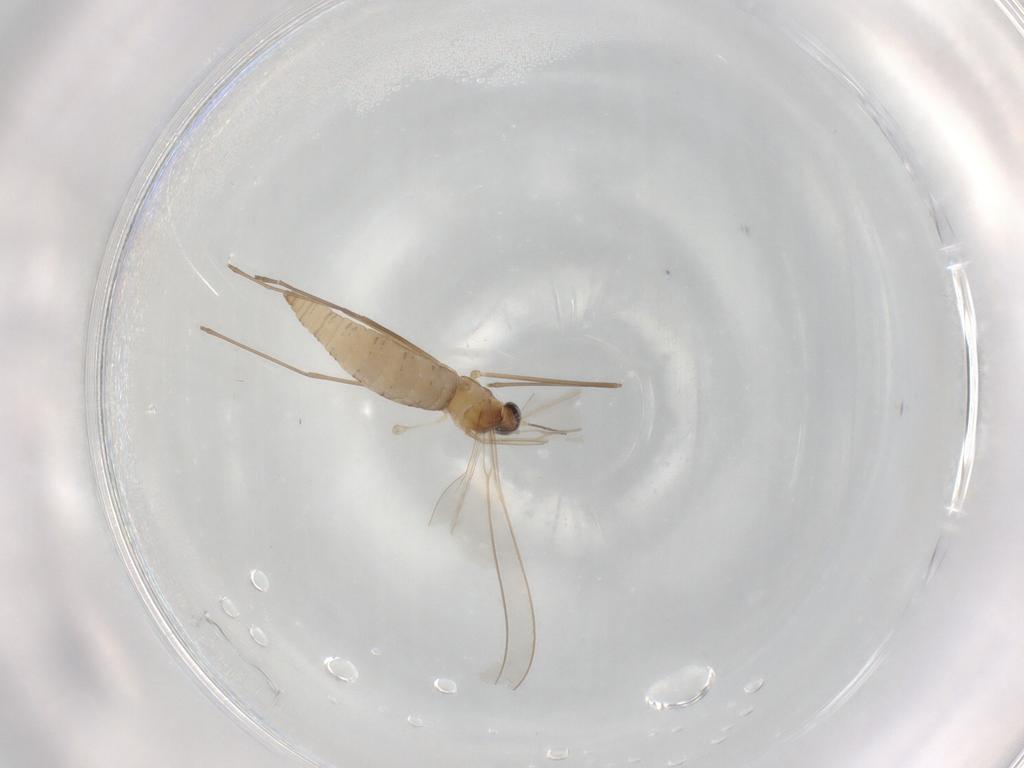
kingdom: Animalia
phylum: Arthropoda
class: Insecta
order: Diptera
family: Cecidomyiidae
